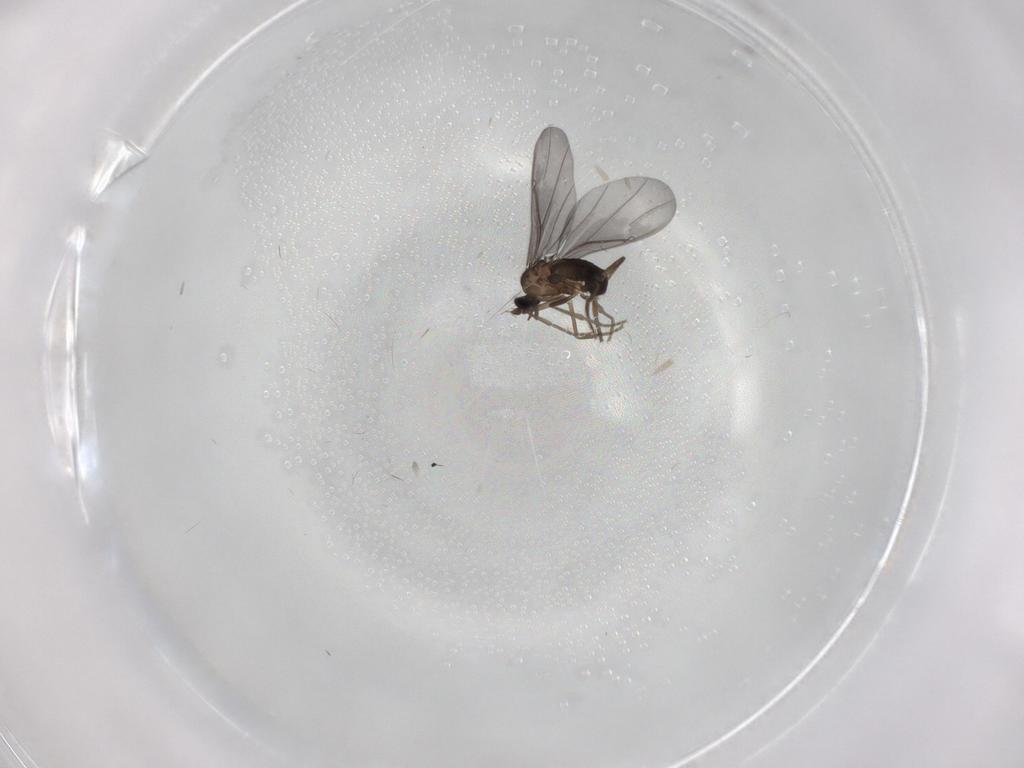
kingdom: Animalia
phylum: Arthropoda
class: Insecta
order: Diptera
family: Phoridae
